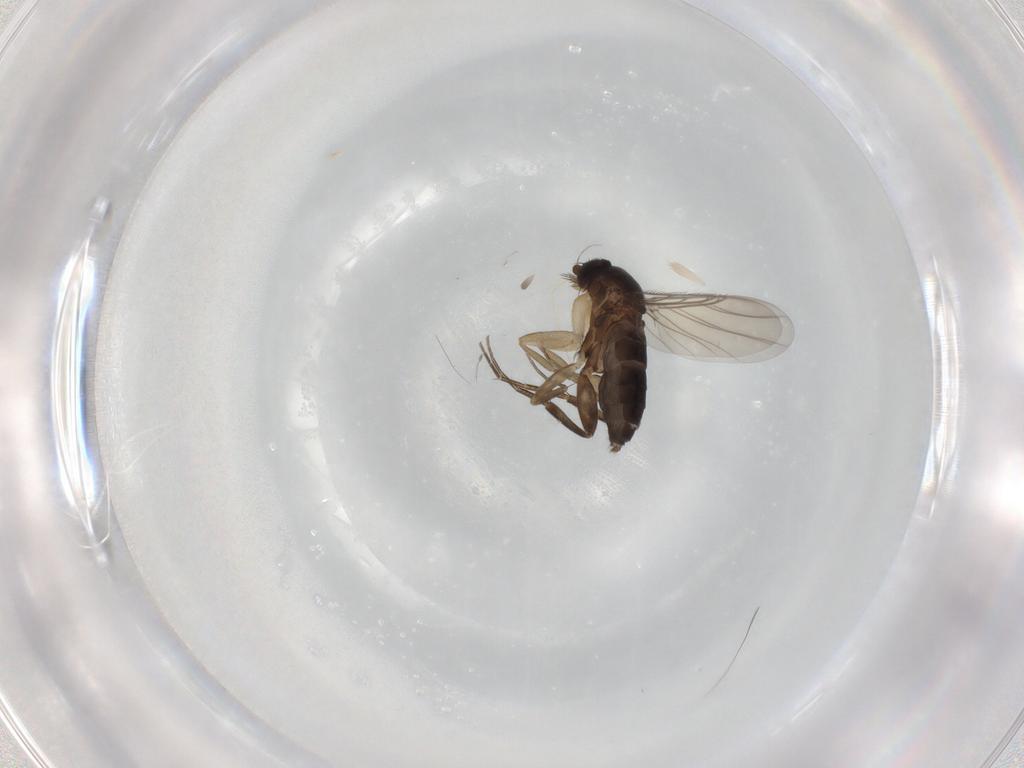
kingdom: Animalia
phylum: Arthropoda
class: Insecta
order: Diptera
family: Phoridae
